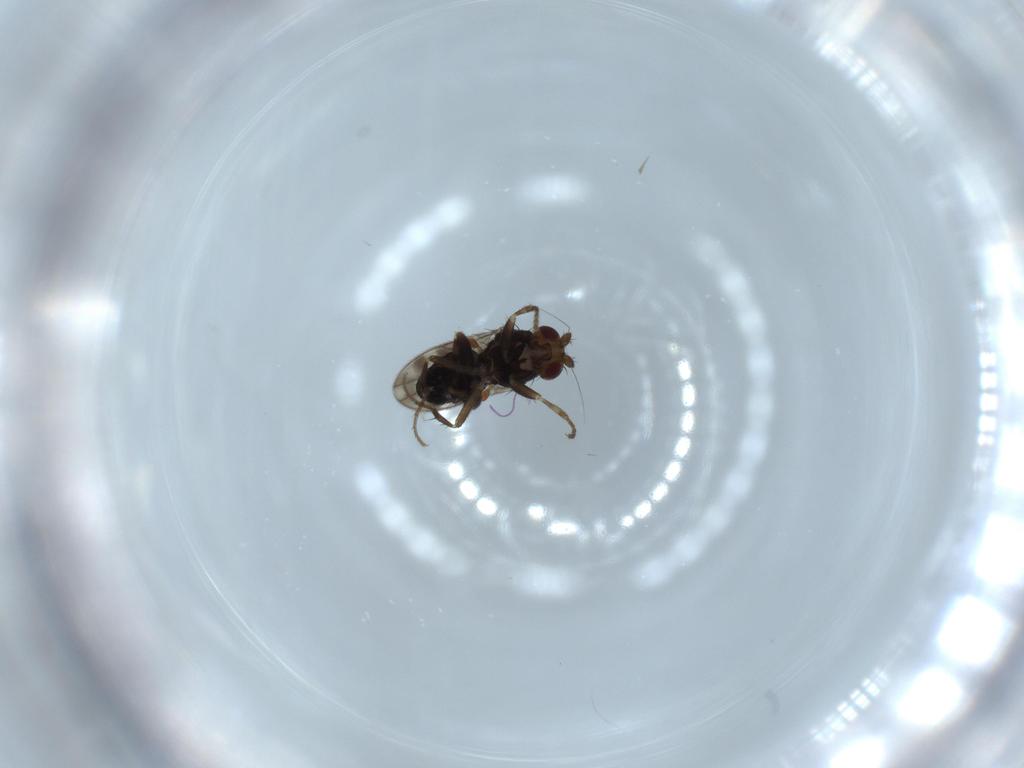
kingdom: Animalia
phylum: Arthropoda
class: Insecta
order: Diptera
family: Sphaeroceridae
